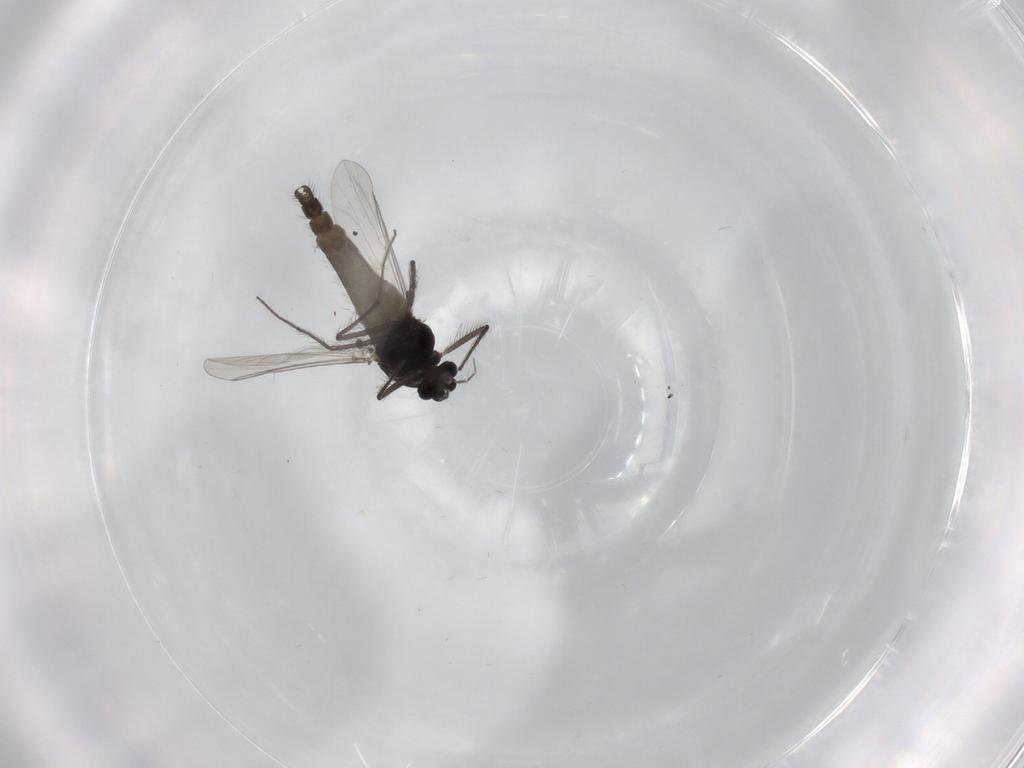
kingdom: Animalia
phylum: Arthropoda
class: Insecta
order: Diptera
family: Chironomidae
